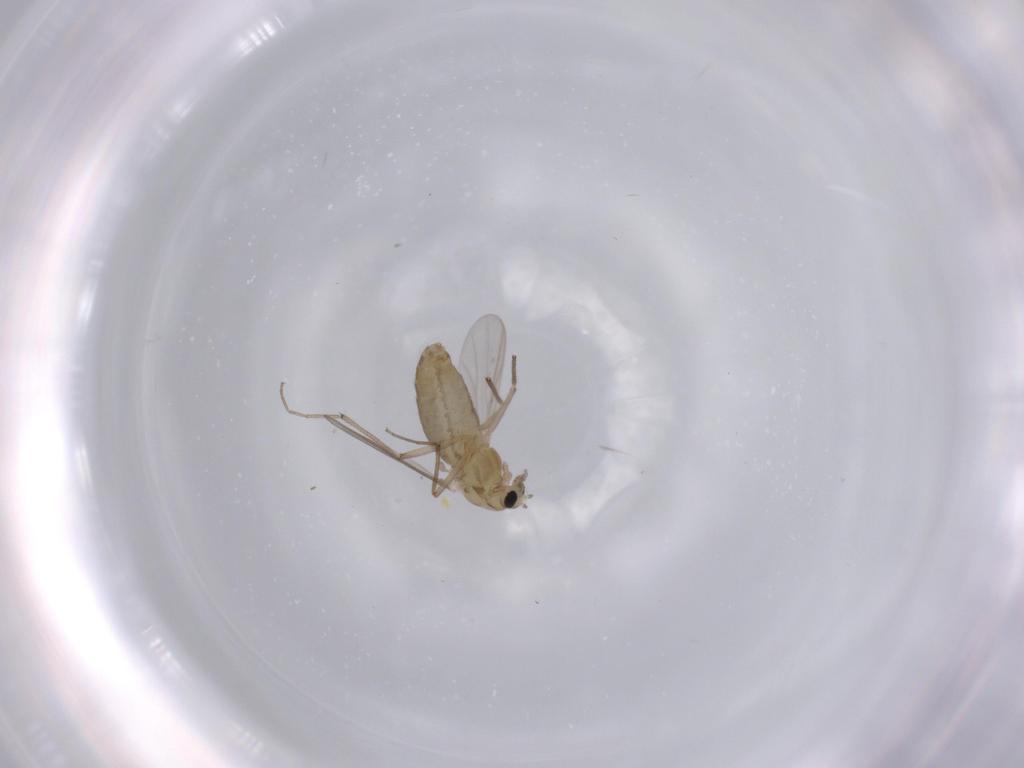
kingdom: Animalia
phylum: Arthropoda
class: Insecta
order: Diptera
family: Chironomidae
